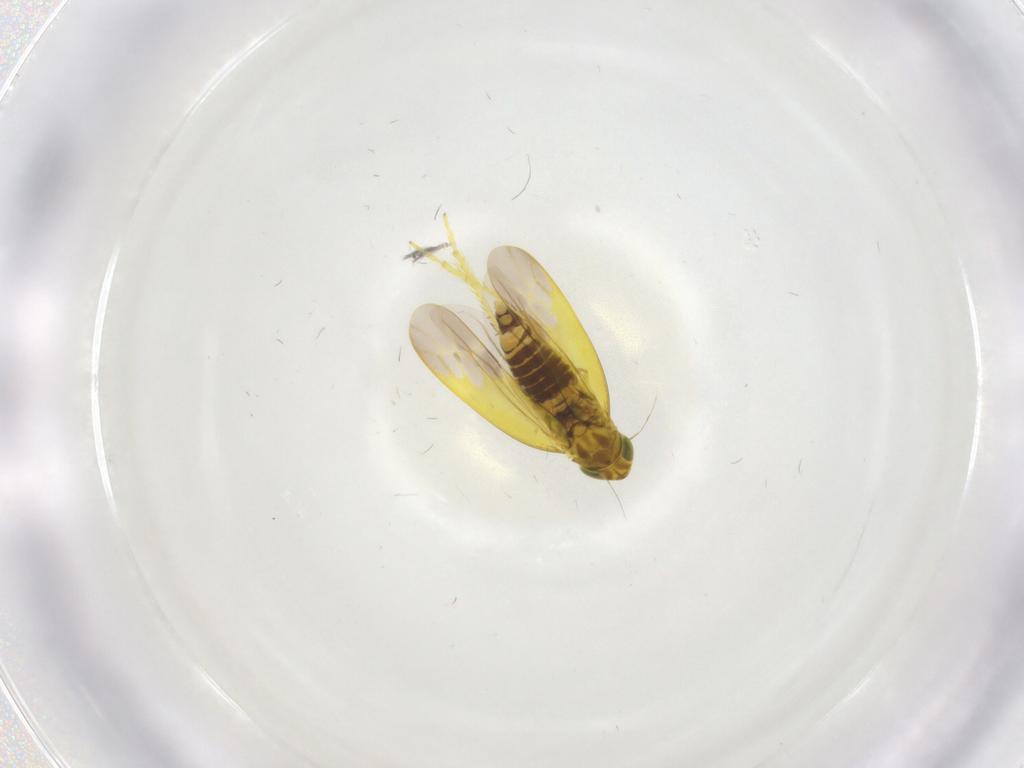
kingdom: Animalia
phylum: Arthropoda
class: Insecta
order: Hemiptera
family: Cicadellidae
